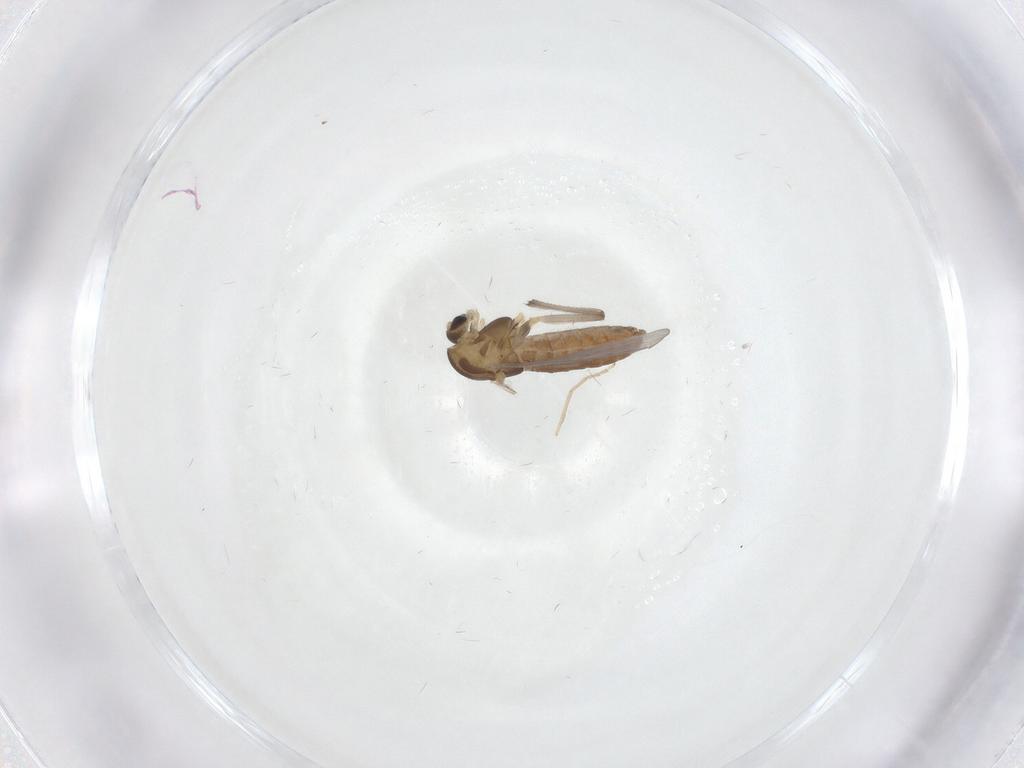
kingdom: Animalia
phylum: Arthropoda
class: Insecta
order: Diptera
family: Chironomidae
